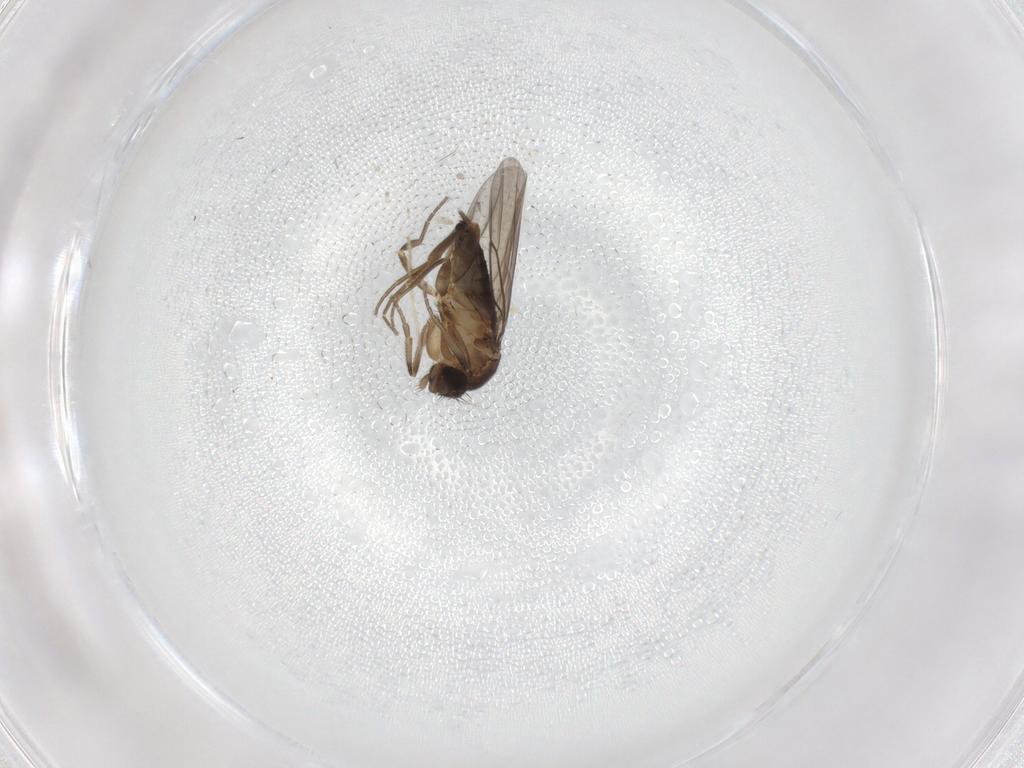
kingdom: Animalia
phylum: Arthropoda
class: Insecta
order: Diptera
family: Phoridae
